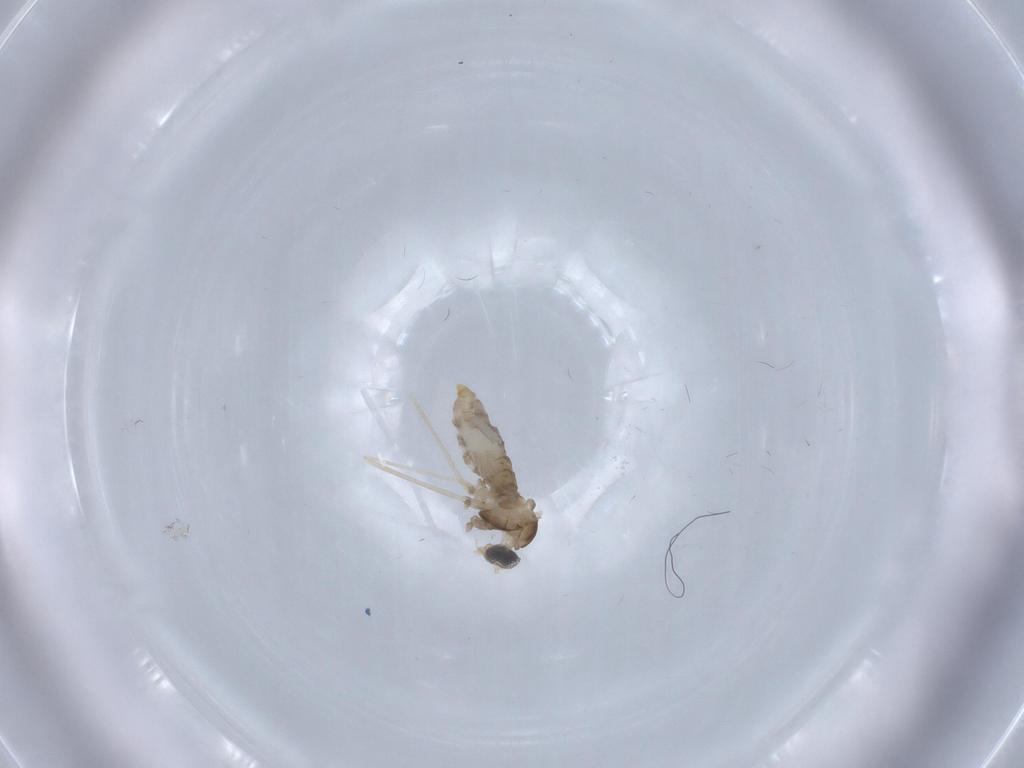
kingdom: Animalia
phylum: Arthropoda
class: Insecta
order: Diptera
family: Cecidomyiidae
